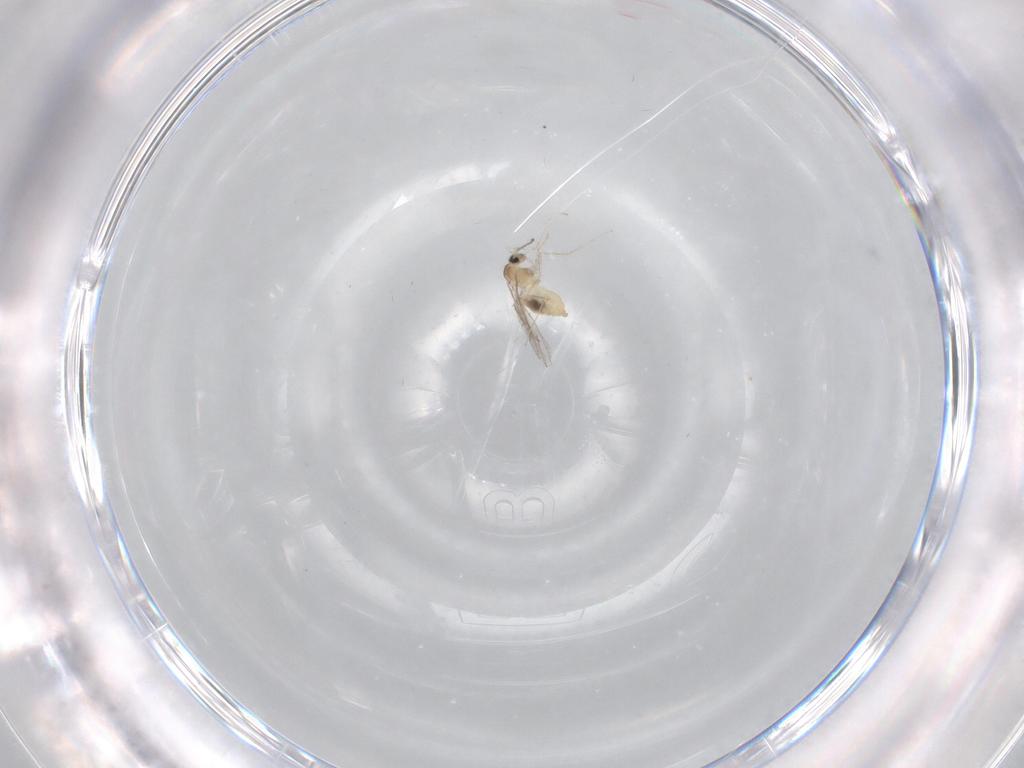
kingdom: Animalia
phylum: Arthropoda
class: Insecta
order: Diptera
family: Cecidomyiidae
